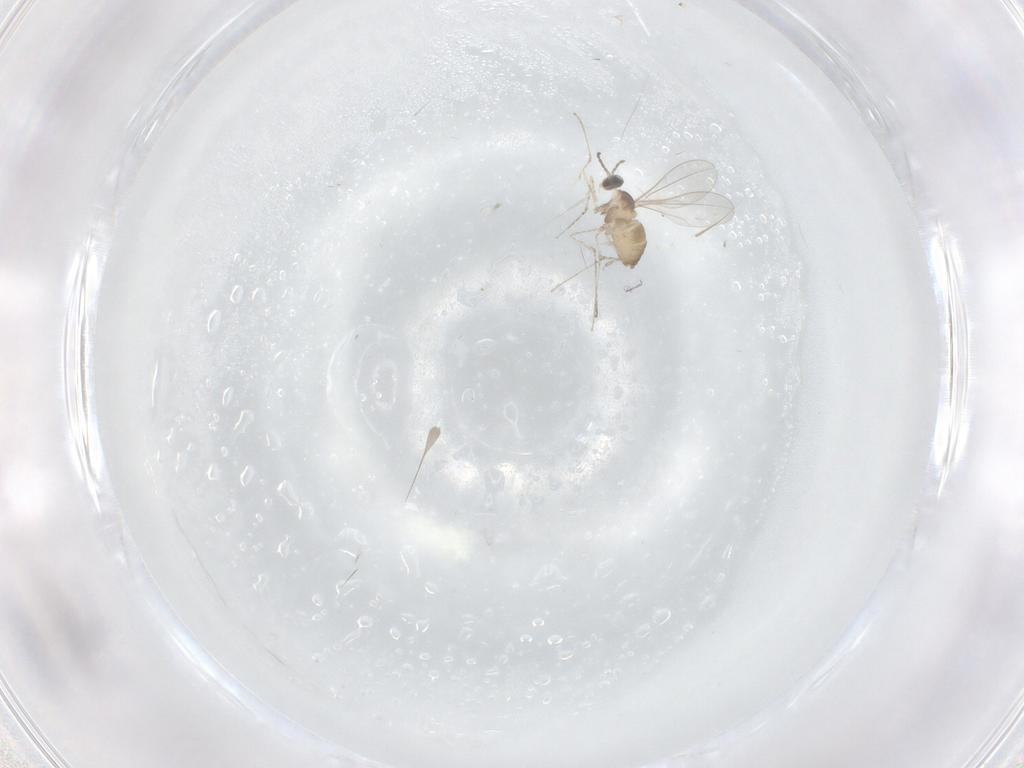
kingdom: Animalia
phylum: Arthropoda
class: Insecta
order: Diptera
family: Cecidomyiidae
